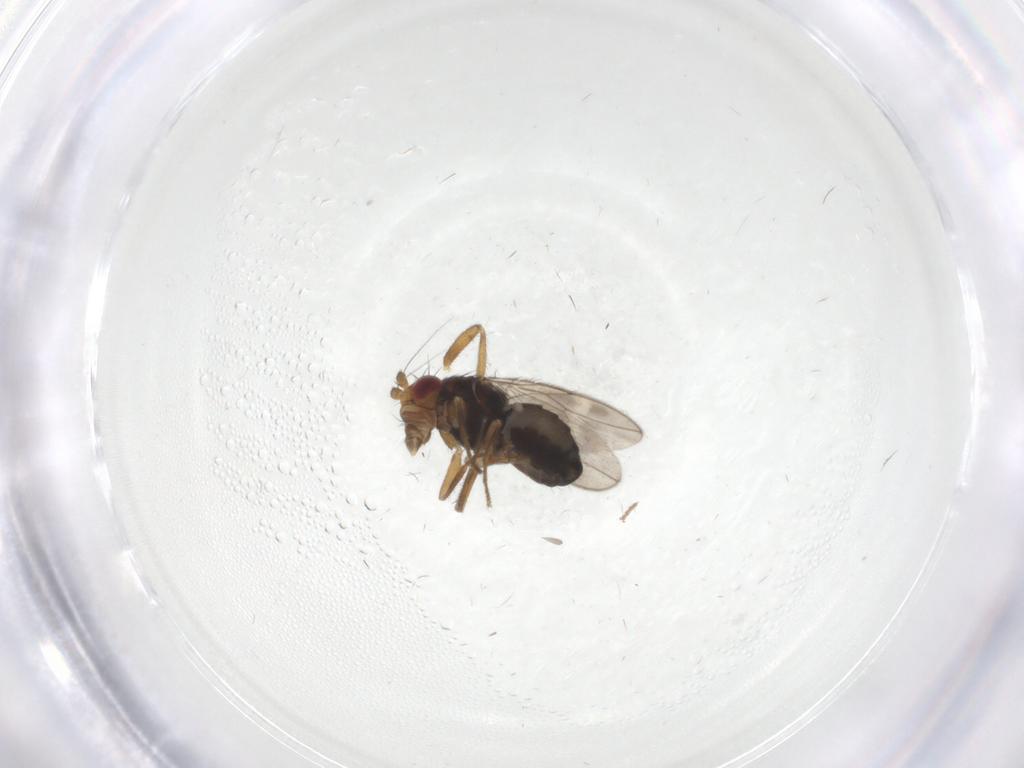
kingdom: Animalia
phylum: Arthropoda
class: Insecta
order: Diptera
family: Sphaeroceridae
